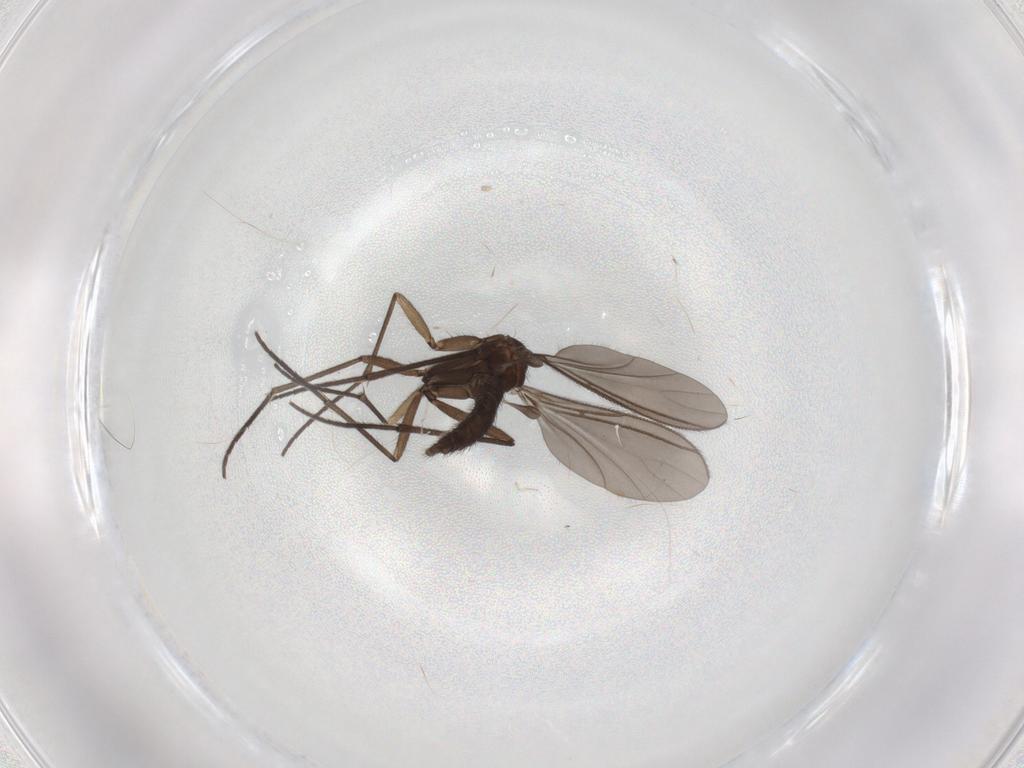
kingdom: Animalia
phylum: Arthropoda
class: Insecta
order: Diptera
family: Sciaridae
